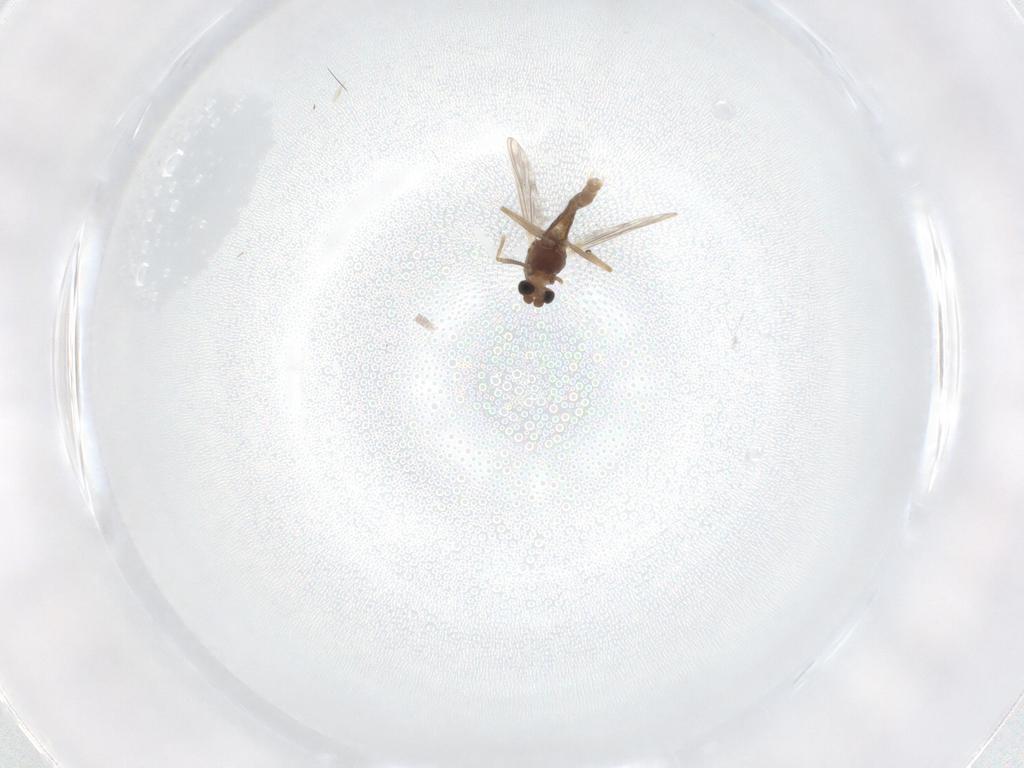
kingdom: Animalia
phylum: Arthropoda
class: Insecta
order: Diptera
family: Chironomidae
